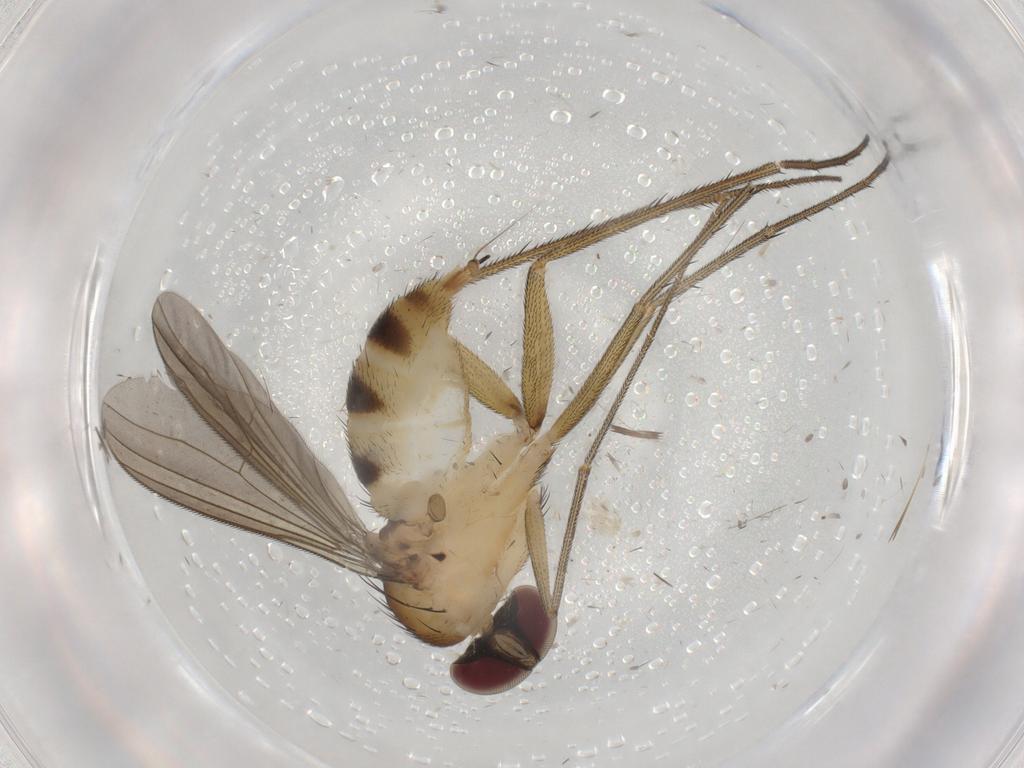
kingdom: Animalia
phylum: Arthropoda
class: Insecta
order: Diptera
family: Dolichopodidae
